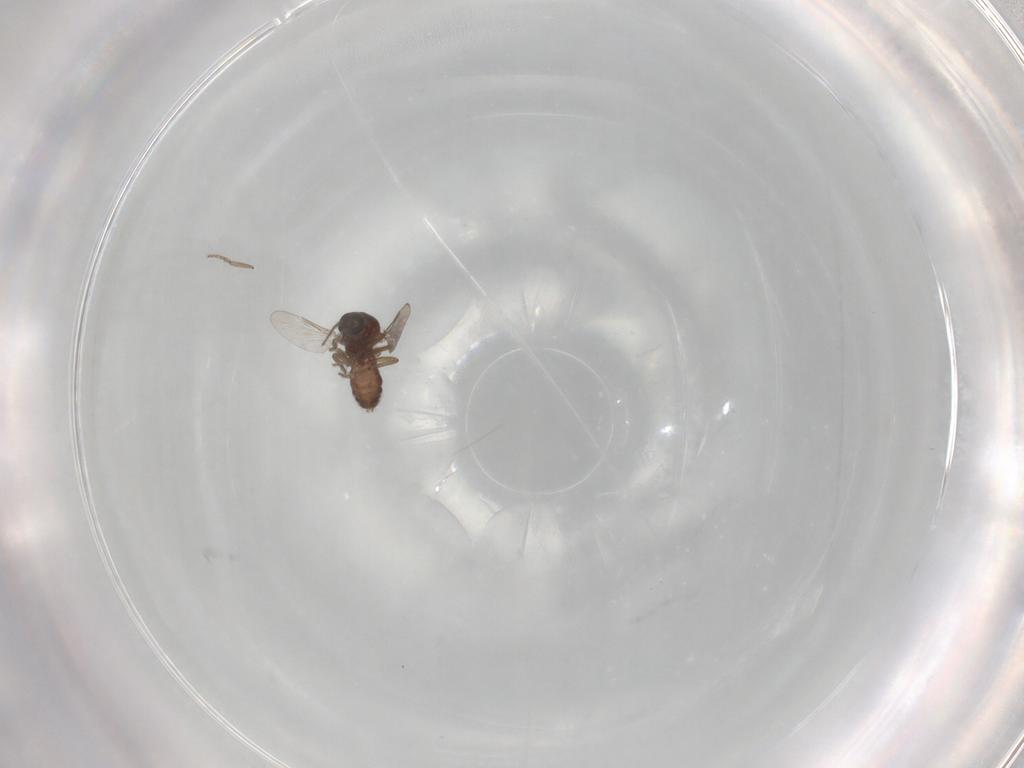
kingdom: Animalia
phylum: Arthropoda
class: Insecta
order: Diptera
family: Ceratopogonidae
